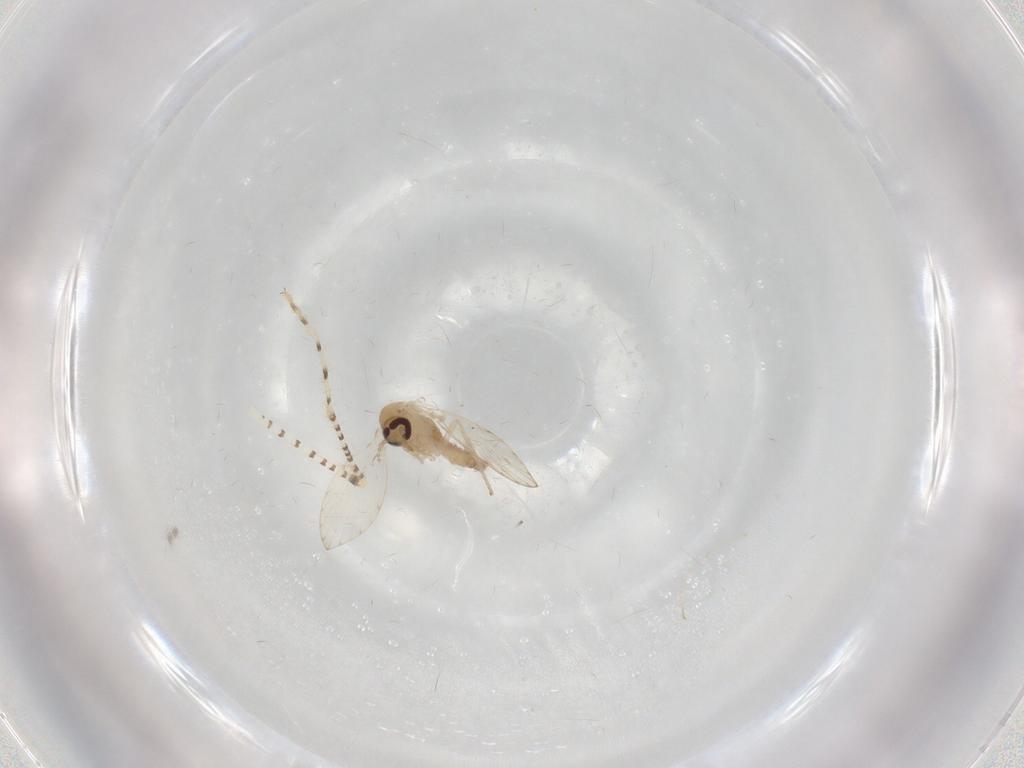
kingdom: Animalia
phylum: Arthropoda
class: Insecta
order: Diptera
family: Psychodidae
